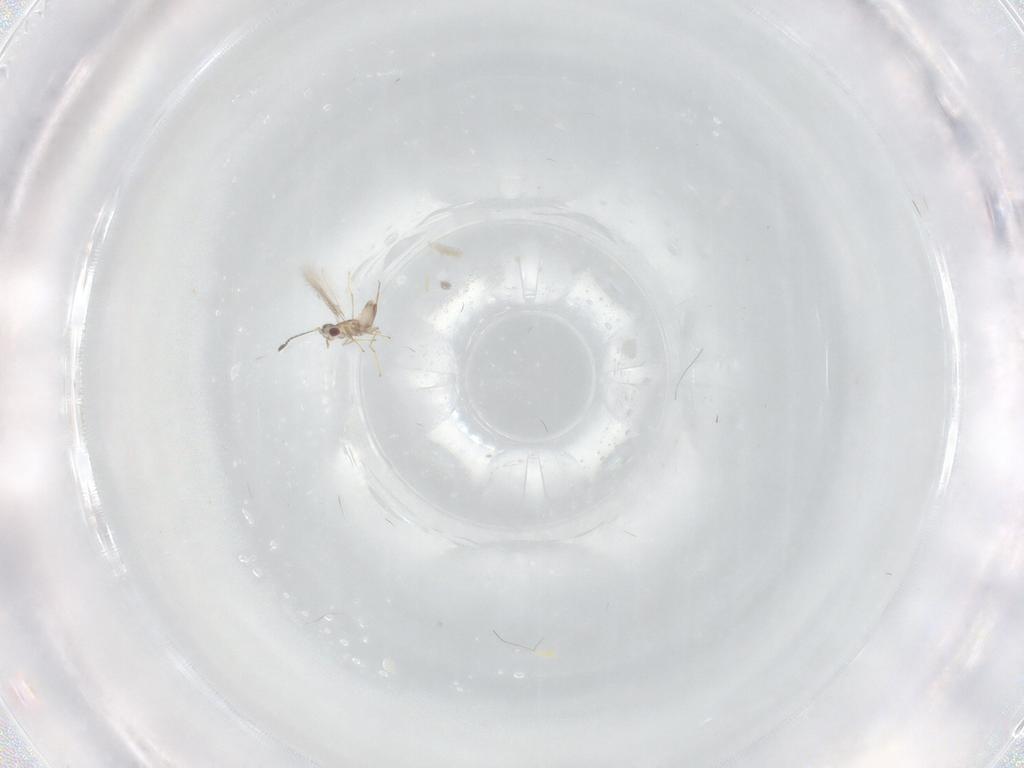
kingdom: Animalia
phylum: Arthropoda
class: Insecta
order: Hymenoptera
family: Mymaridae
